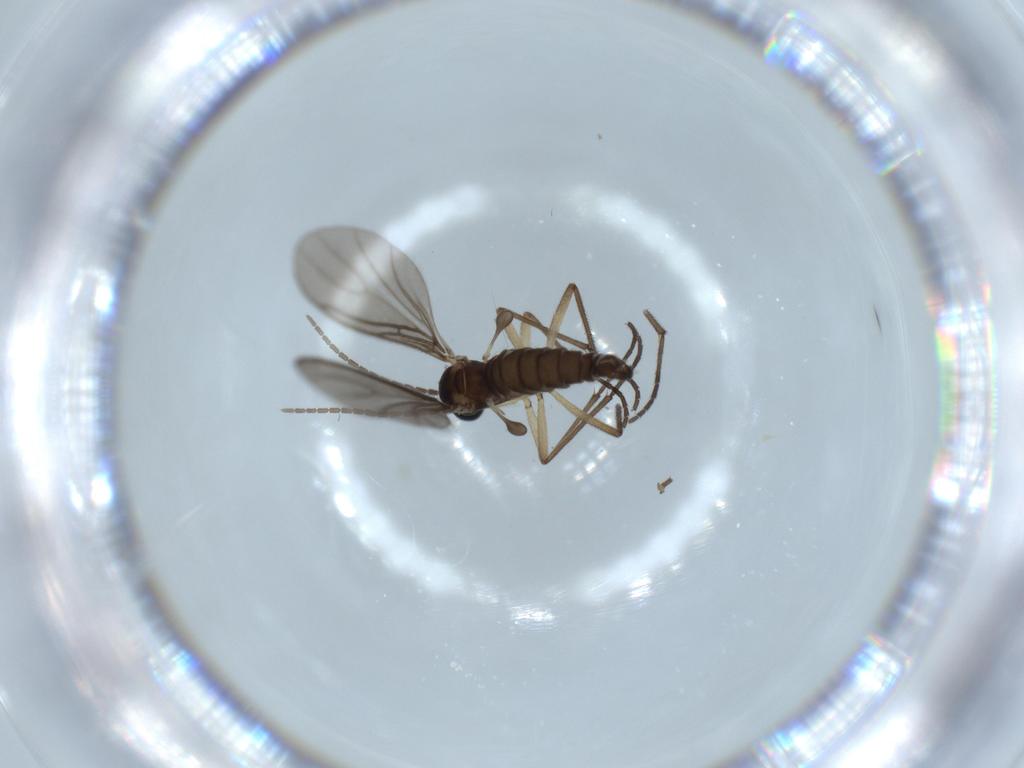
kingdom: Animalia
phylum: Arthropoda
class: Insecta
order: Diptera
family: Sciaridae
